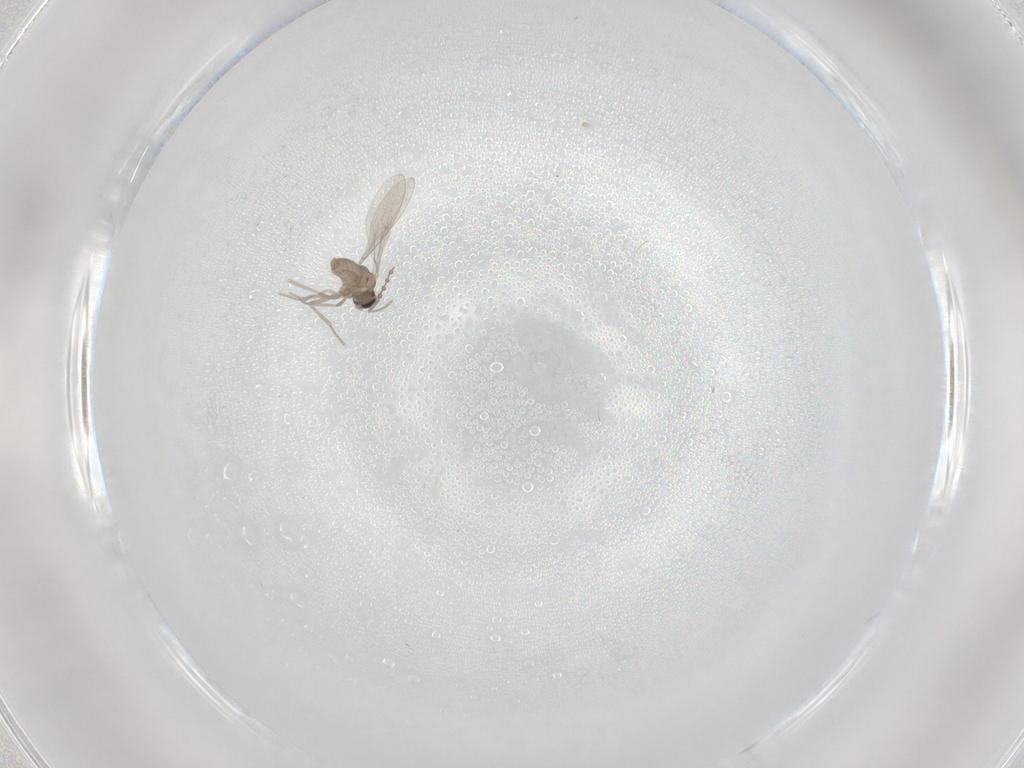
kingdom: Animalia
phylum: Arthropoda
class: Insecta
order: Diptera
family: Cecidomyiidae
